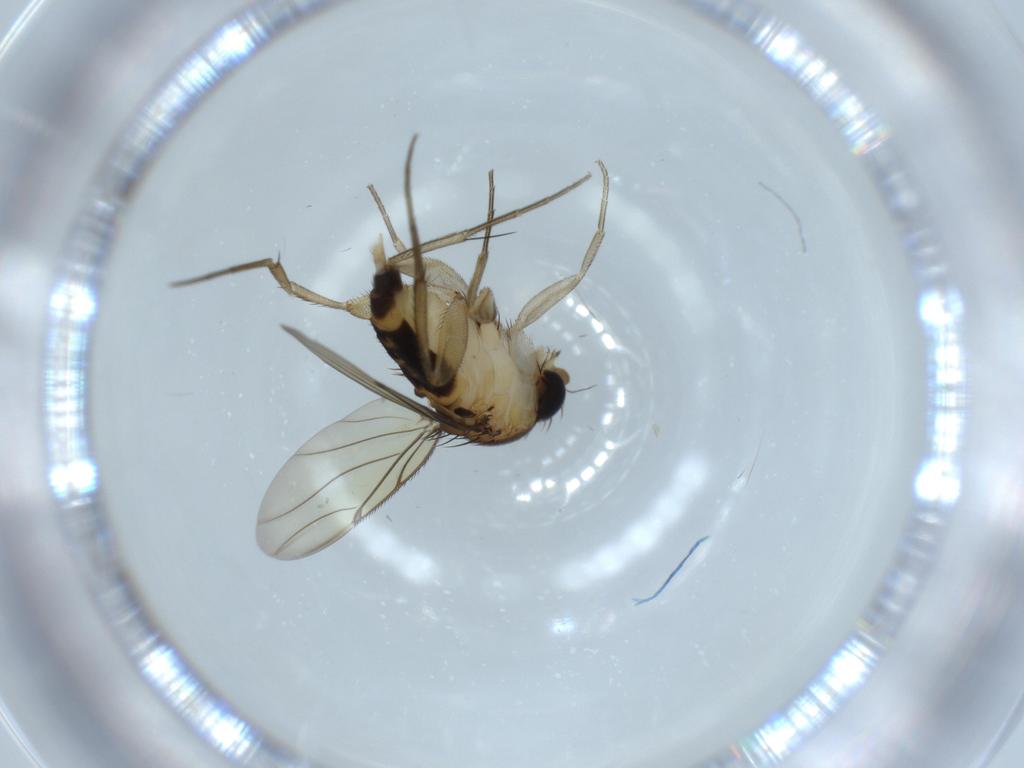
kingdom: Animalia
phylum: Arthropoda
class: Insecta
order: Diptera
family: Phoridae
